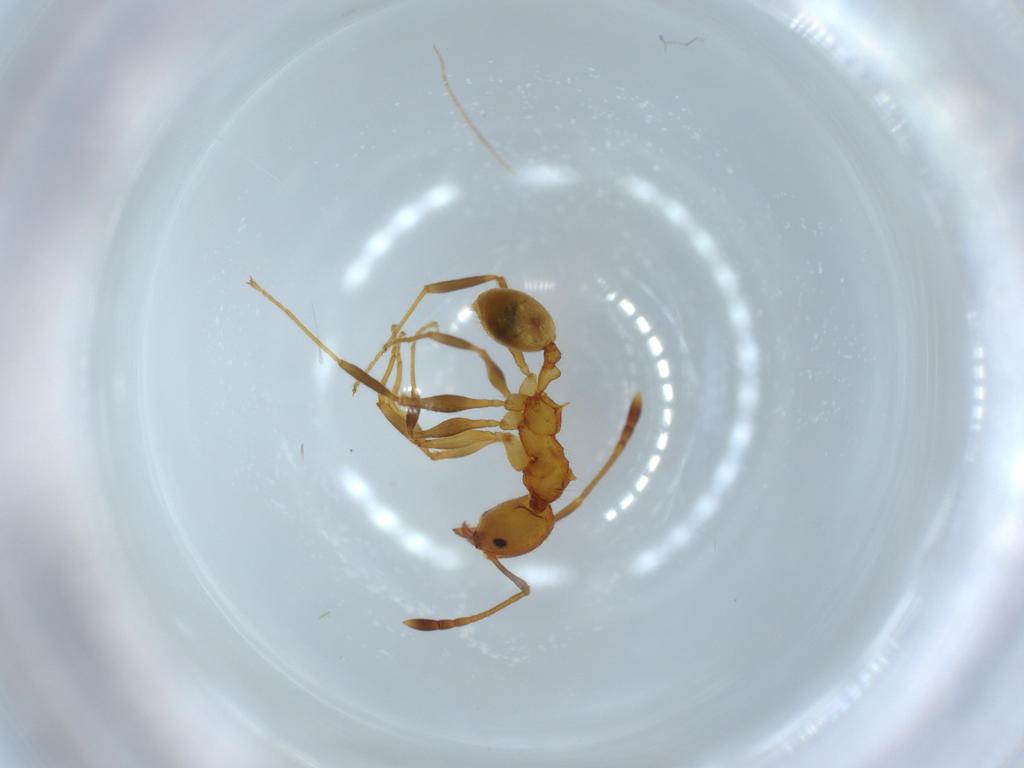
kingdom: Animalia
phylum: Arthropoda
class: Insecta
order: Hymenoptera
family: Formicidae
